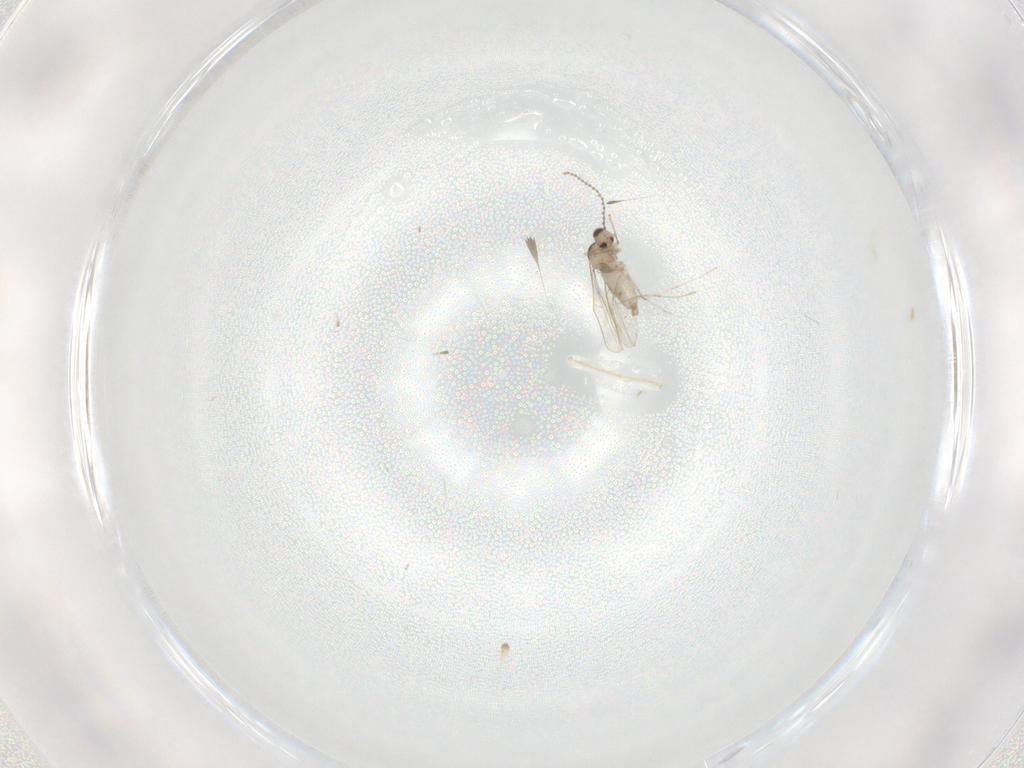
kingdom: Animalia
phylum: Arthropoda
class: Insecta
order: Diptera
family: Cecidomyiidae
